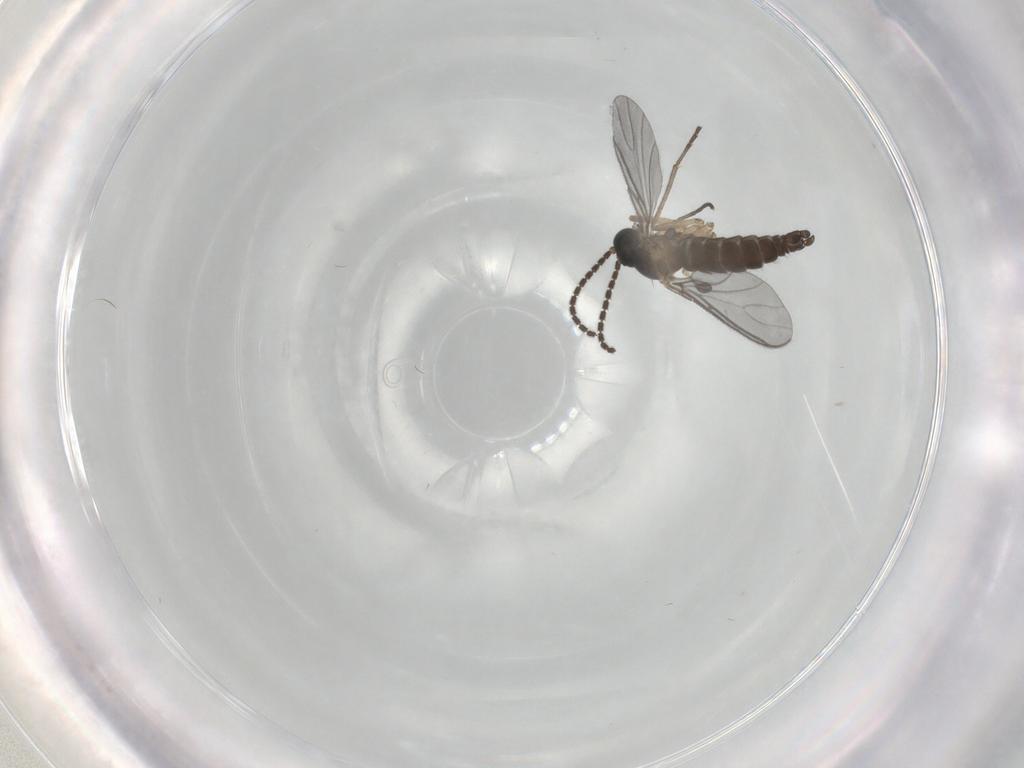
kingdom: Animalia
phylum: Arthropoda
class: Insecta
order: Diptera
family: Sciaridae
